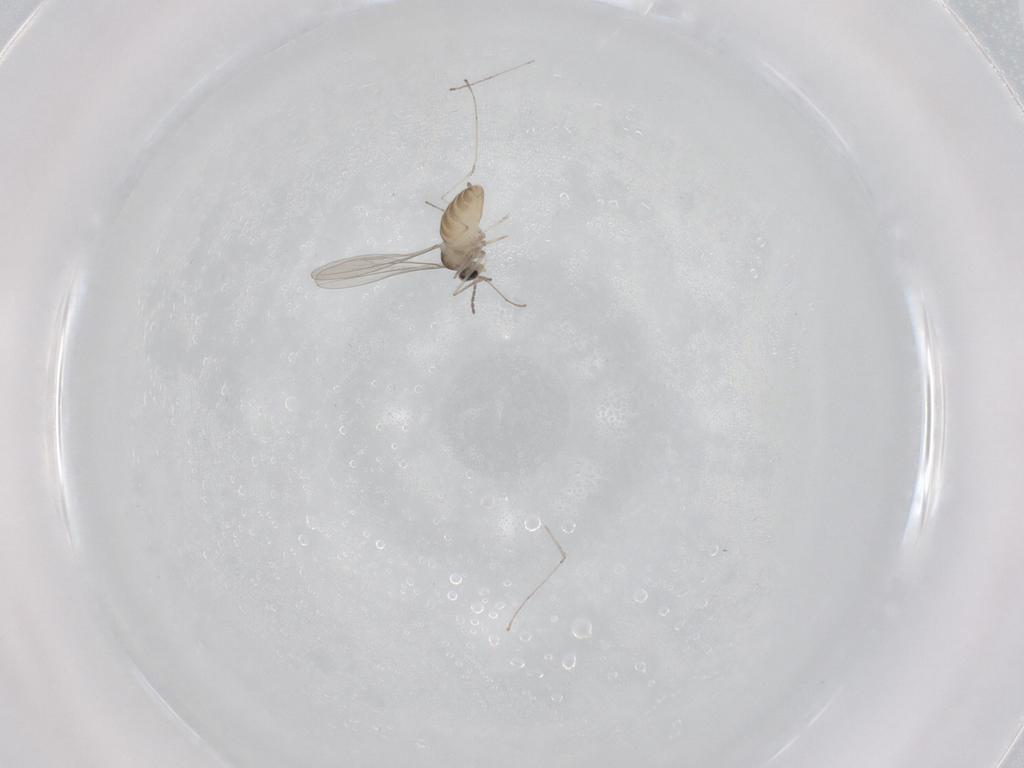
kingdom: Animalia
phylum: Arthropoda
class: Insecta
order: Diptera
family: Cecidomyiidae
